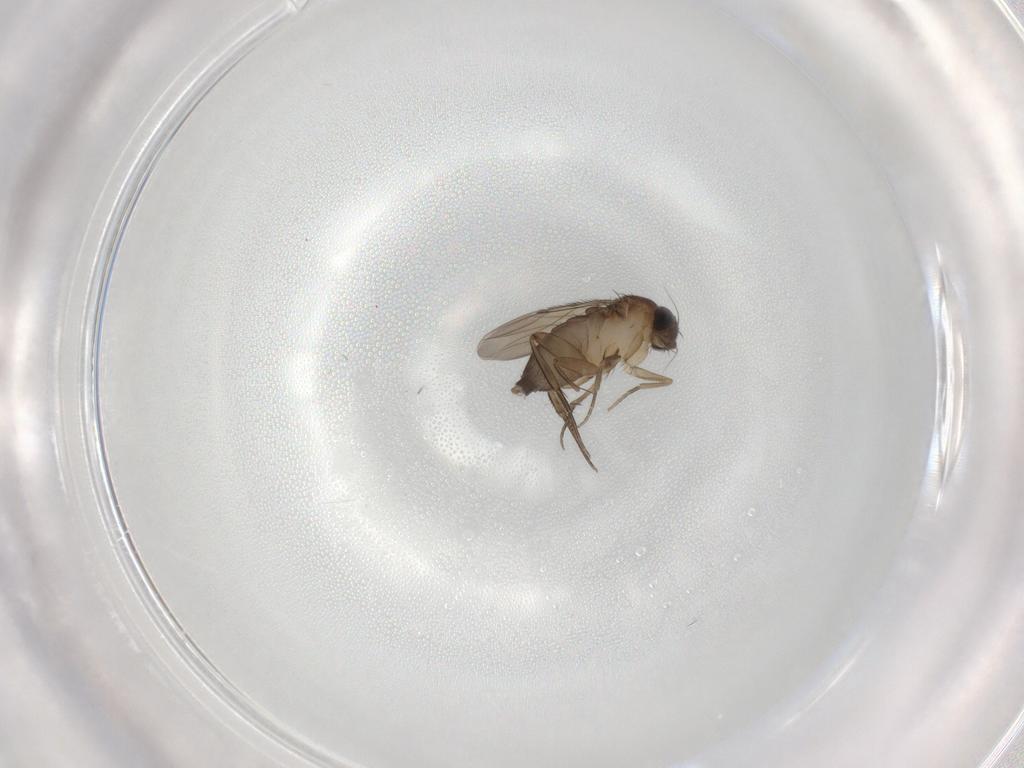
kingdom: Animalia
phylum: Arthropoda
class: Insecta
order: Diptera
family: Phoridae
